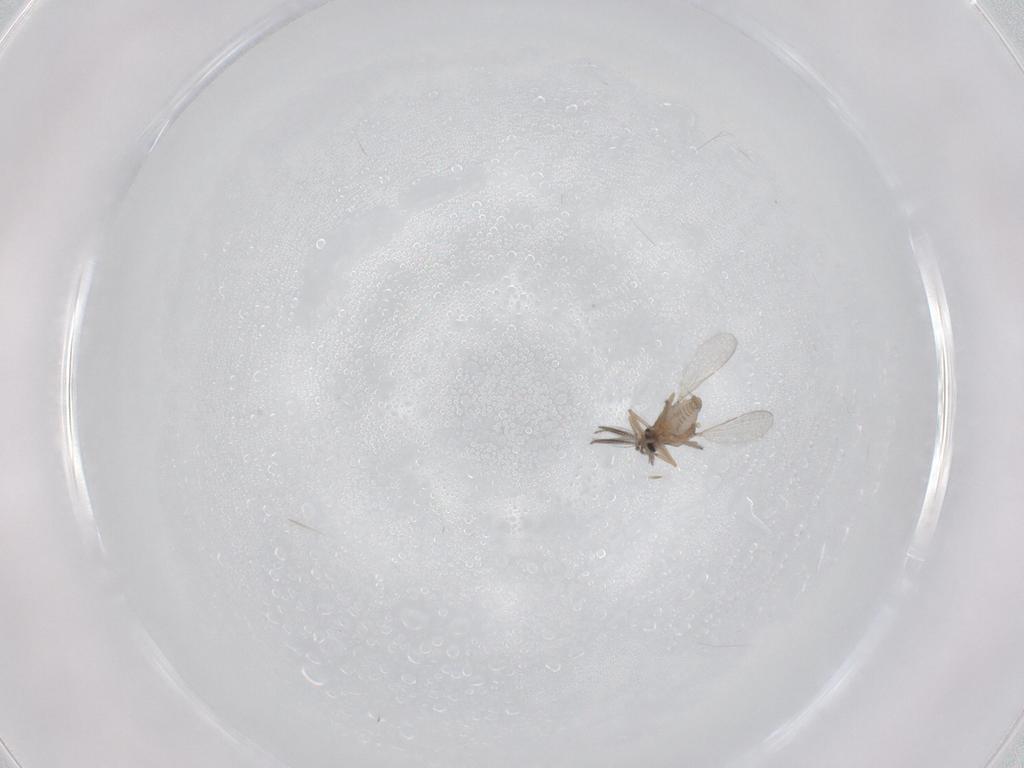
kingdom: Animalia
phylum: Arthropoda
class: Insecta
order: Diptera
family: Ceratopogonidae
